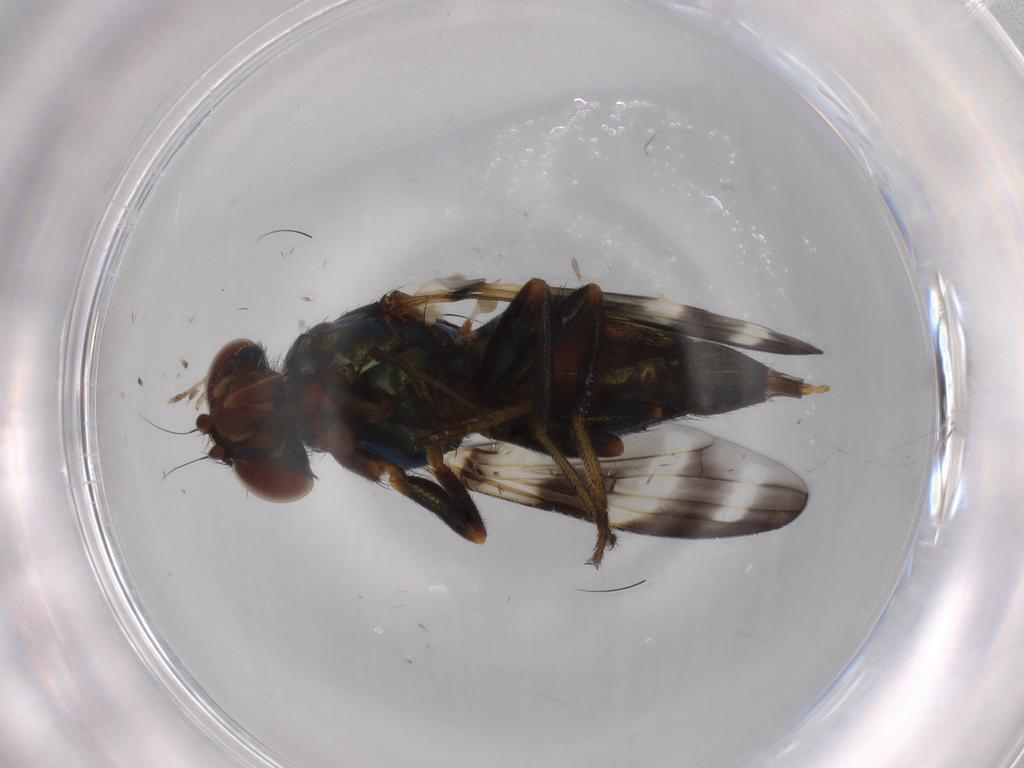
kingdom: Animalia
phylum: Arthropoda
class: Insecta
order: Diptera
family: Ulidiidae
